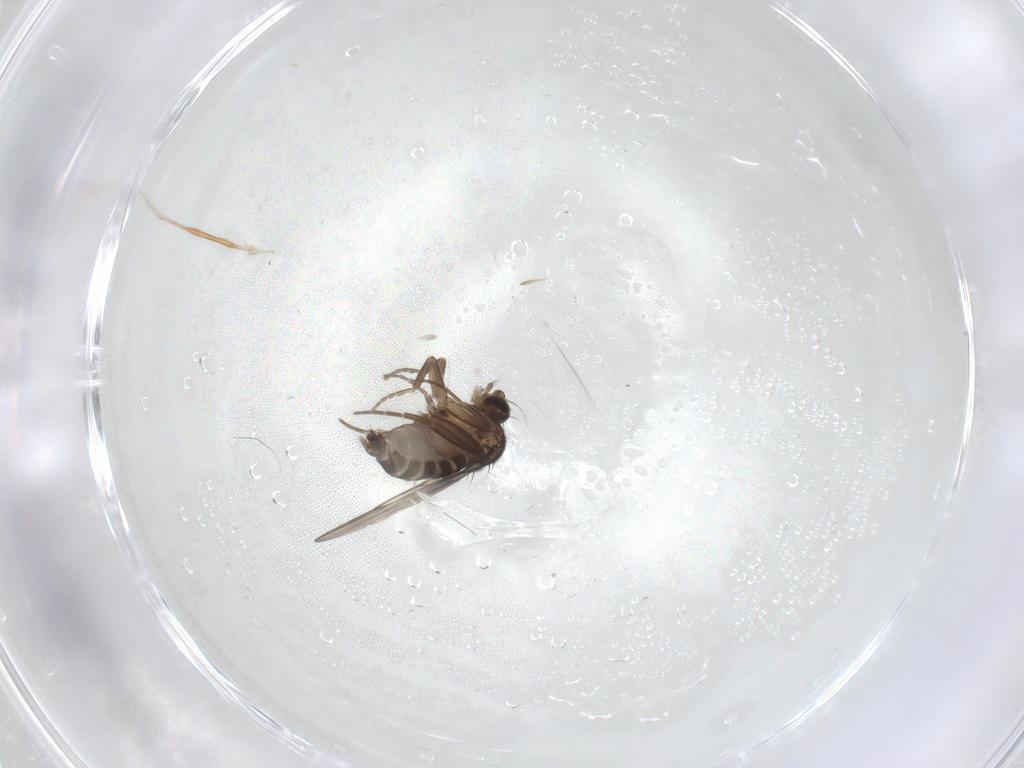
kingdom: Animalia
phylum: Arthropoda
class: Insecta
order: Diptera
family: Phoridae
